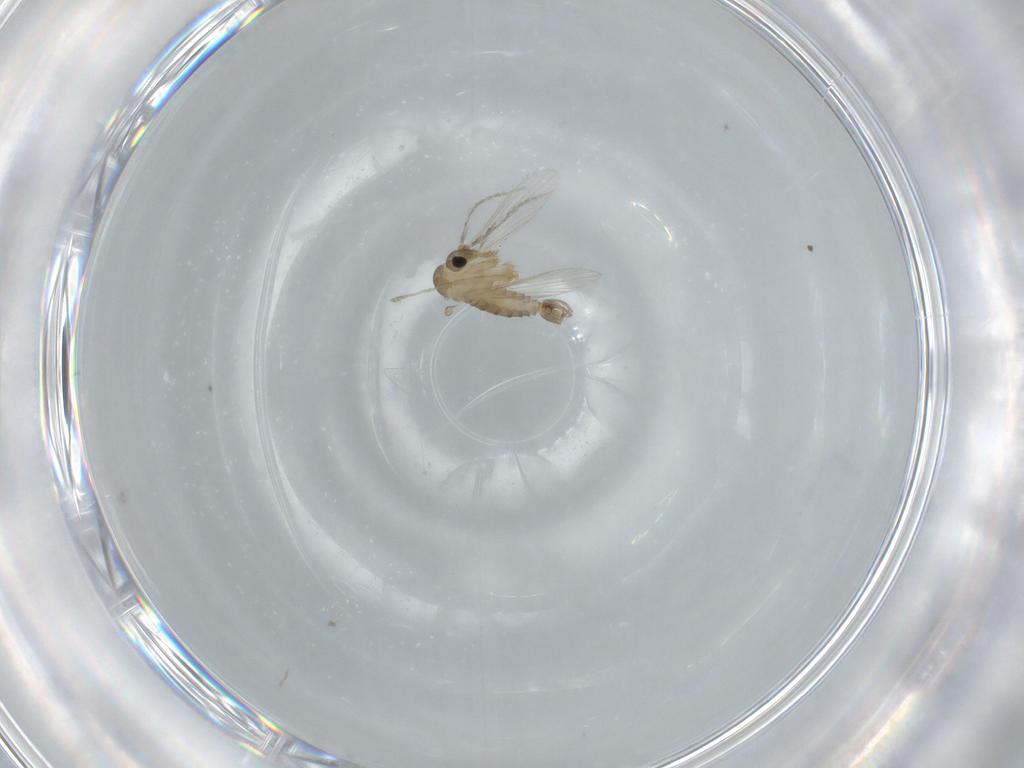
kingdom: Animalia
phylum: Arthropoda
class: Insecta
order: Diptera
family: Psychodidae
